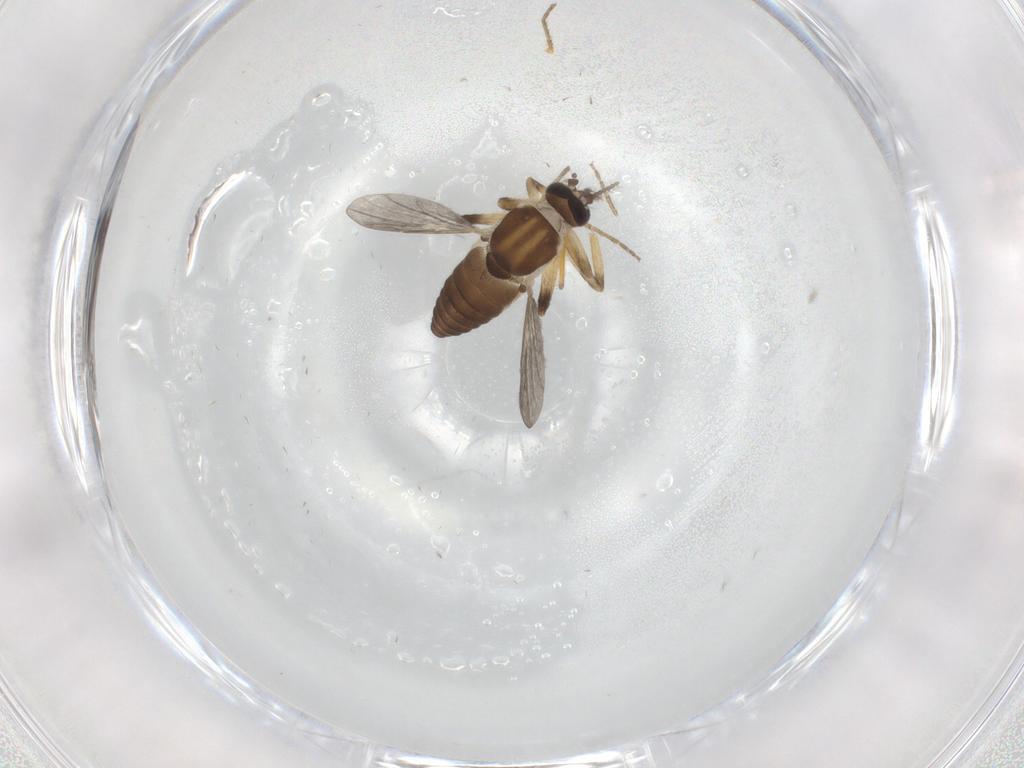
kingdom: Animalia
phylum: Arthropoda
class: Insecta
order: Diptera
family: Ceratopogonidae
